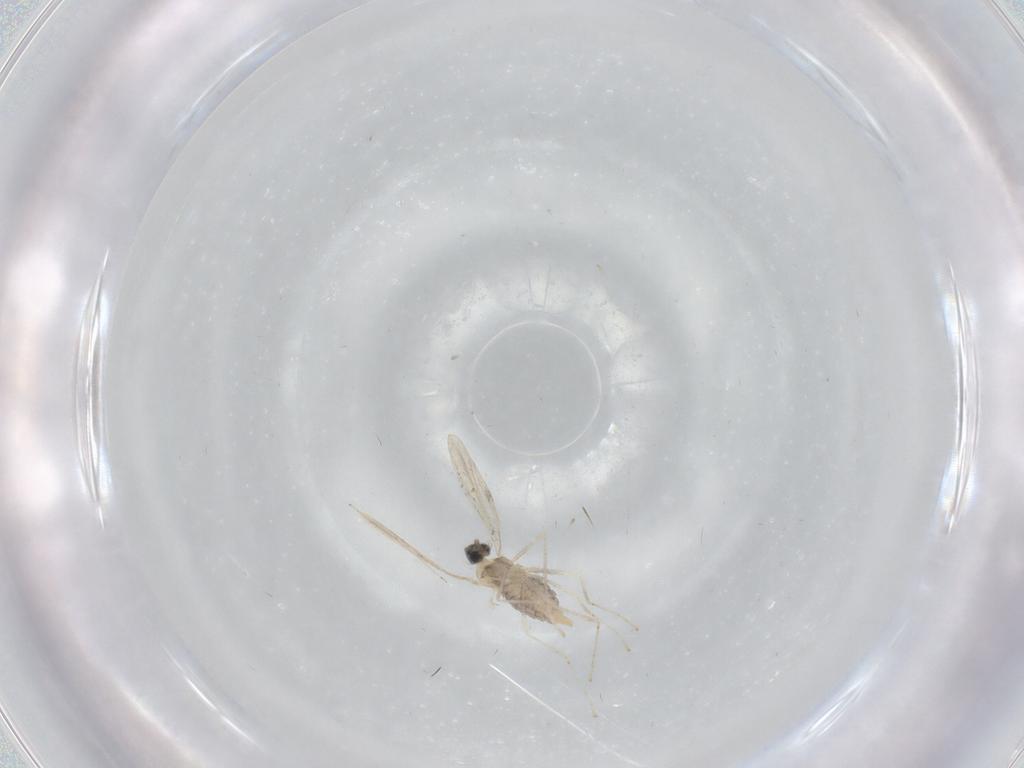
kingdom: Animalia
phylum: Arthropoda
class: Insecta
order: Diptera
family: Cecidomyiidae
